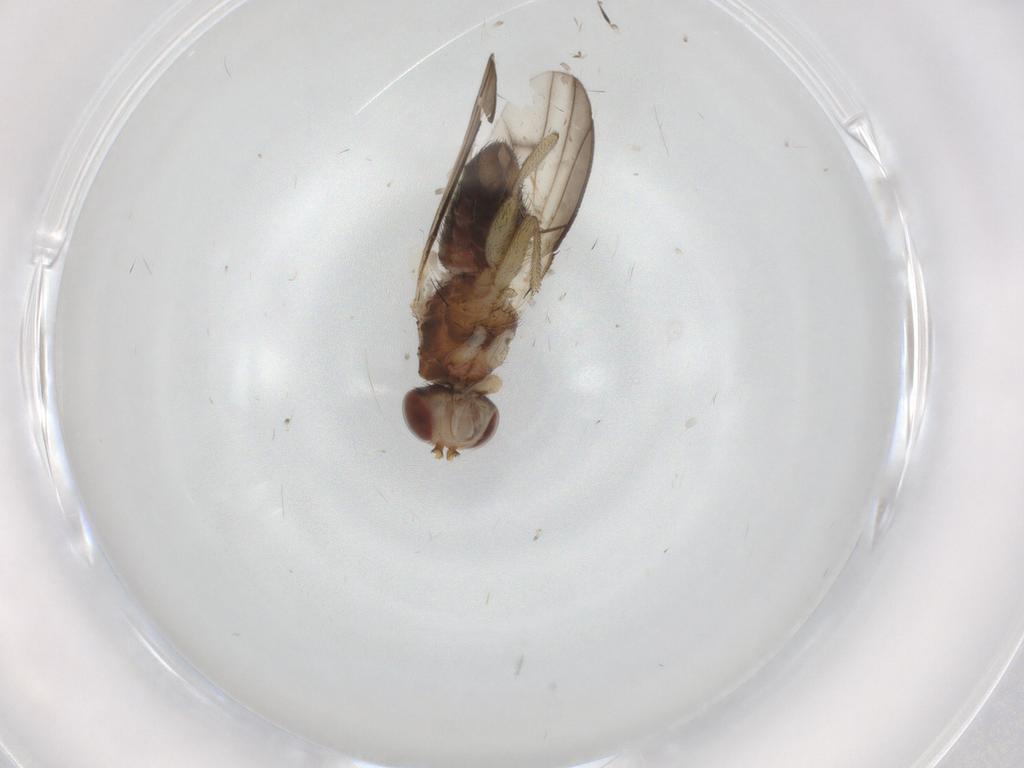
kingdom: Animalia
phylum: Arthropoda
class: Insecta
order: Diptera
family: Heleomyzidae
